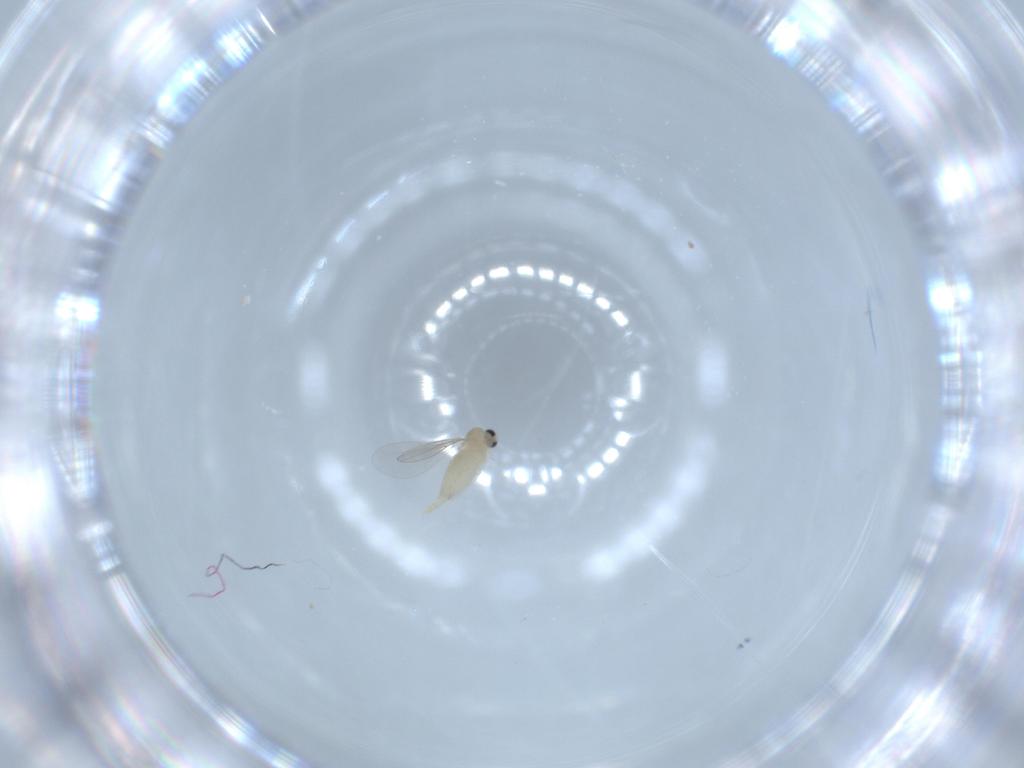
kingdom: Animalia
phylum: Arthropoda
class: Insecta
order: Diptera
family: Cecidomyiidae
